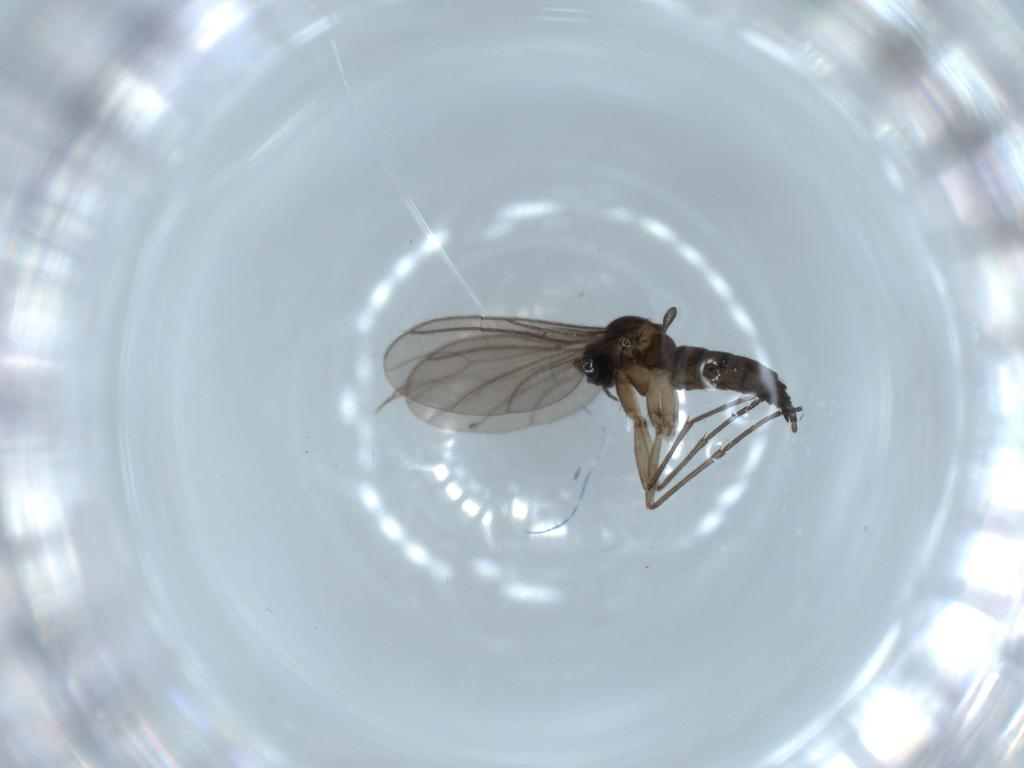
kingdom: Animalia
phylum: Arthropoda
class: Insecta
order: Diptera
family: Sciaridae
